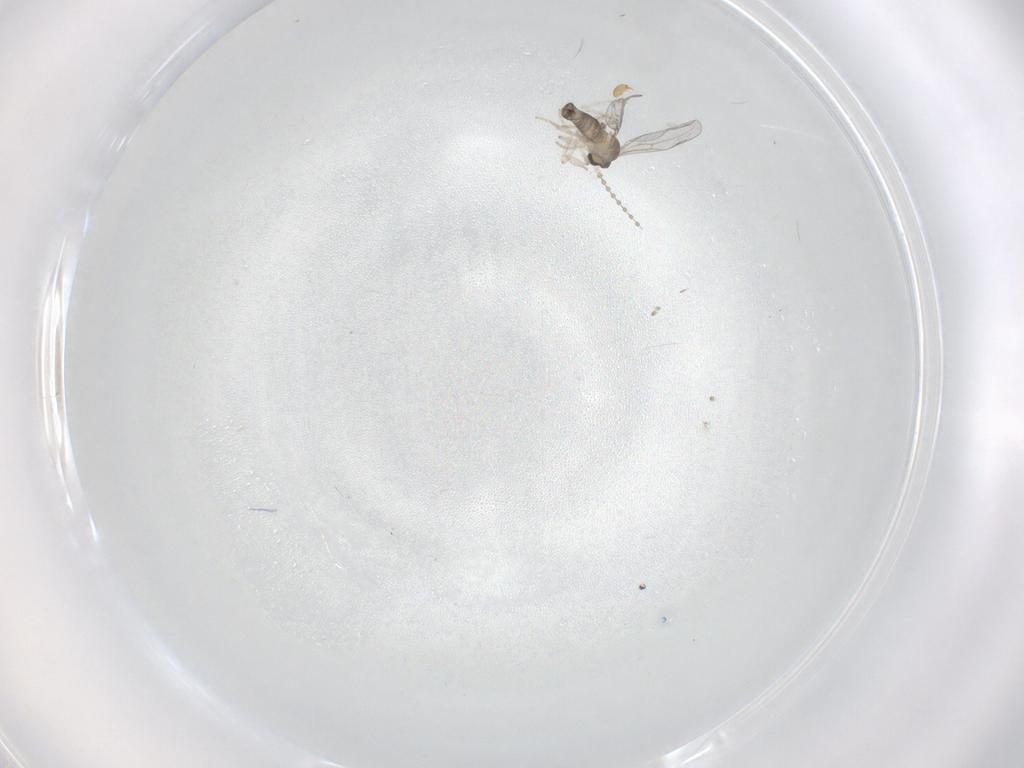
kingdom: Animalia
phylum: Arthropoda
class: Insecta
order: Diptera
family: Cecidomyiidae
